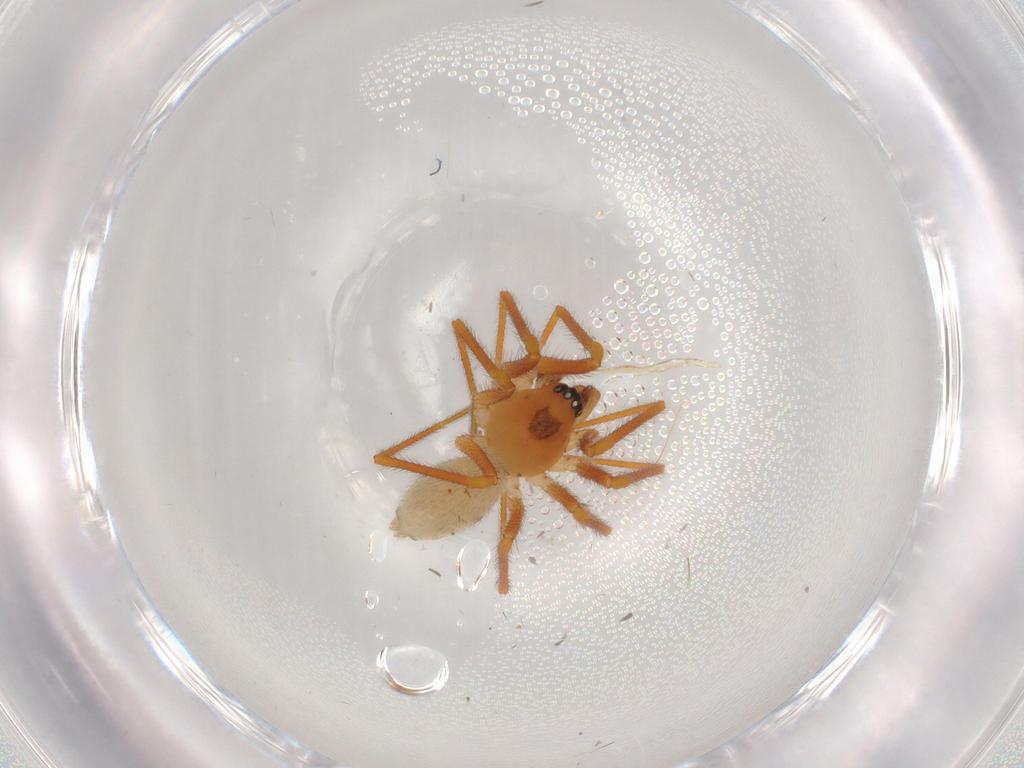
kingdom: Animalia
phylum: Arthropoda
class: Arachnida
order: Araneae
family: Linyphiidae
